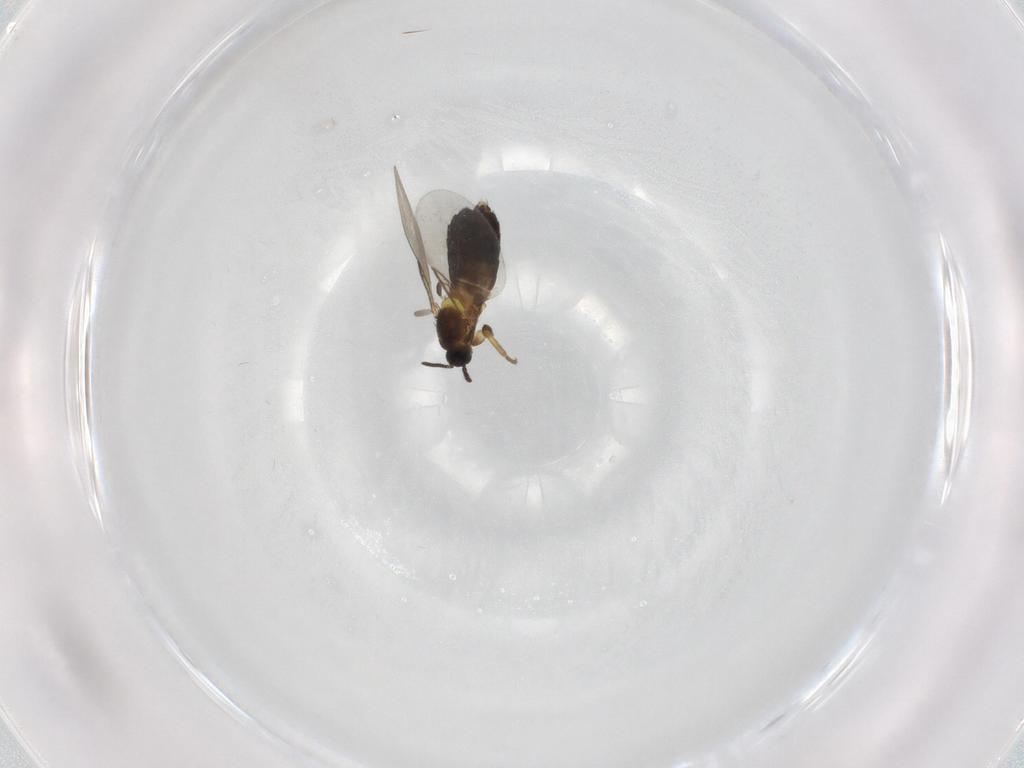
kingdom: Animalia
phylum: Arthropoda
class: Insecta
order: Diptera
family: Scatopsidae
